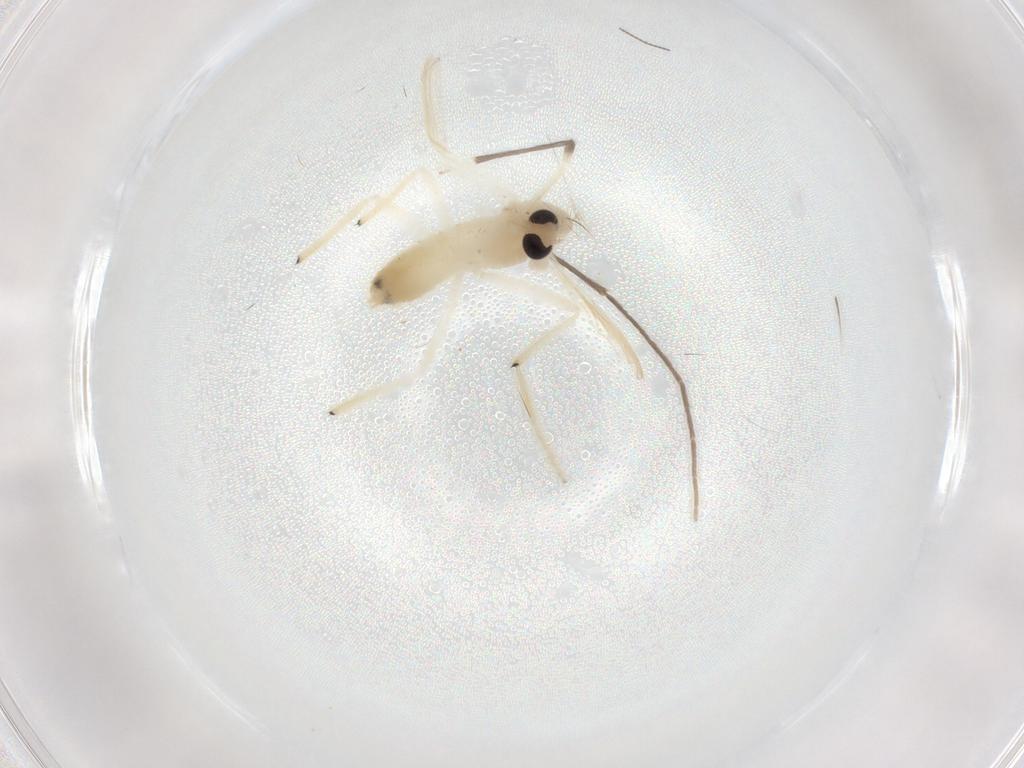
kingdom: Animalia
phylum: Arthropoda
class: Insecta
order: Diptera
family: Chironomidae
